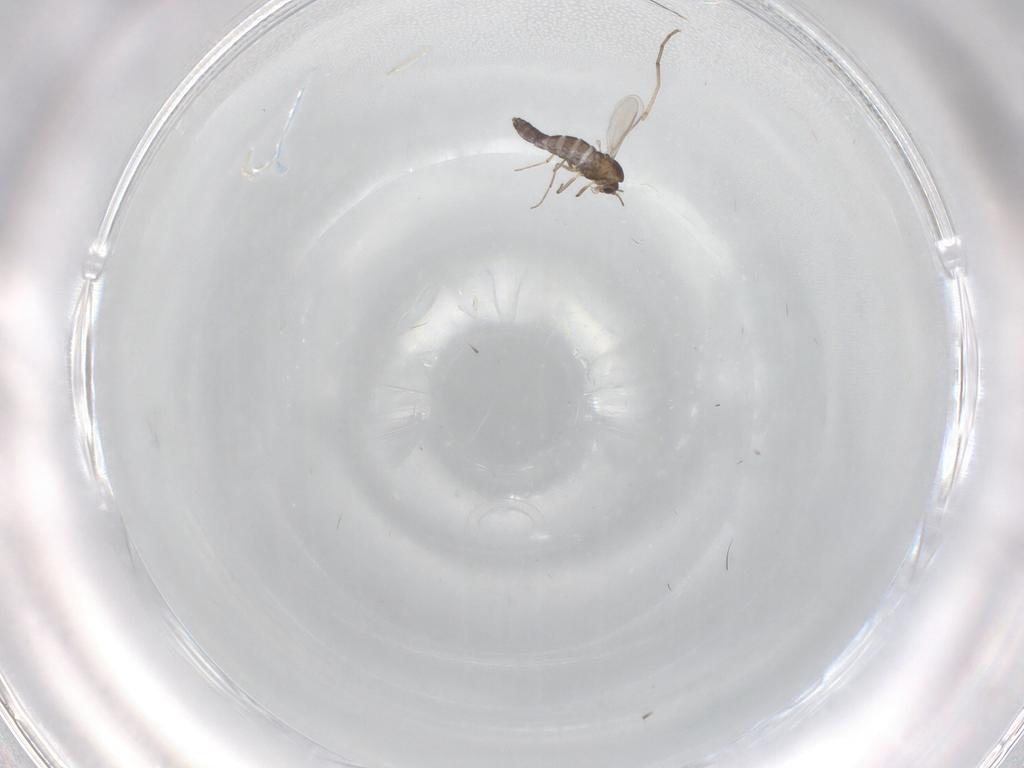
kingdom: Animalia
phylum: Arthropoda
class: Insecta
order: Diptera
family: Chironomidae
